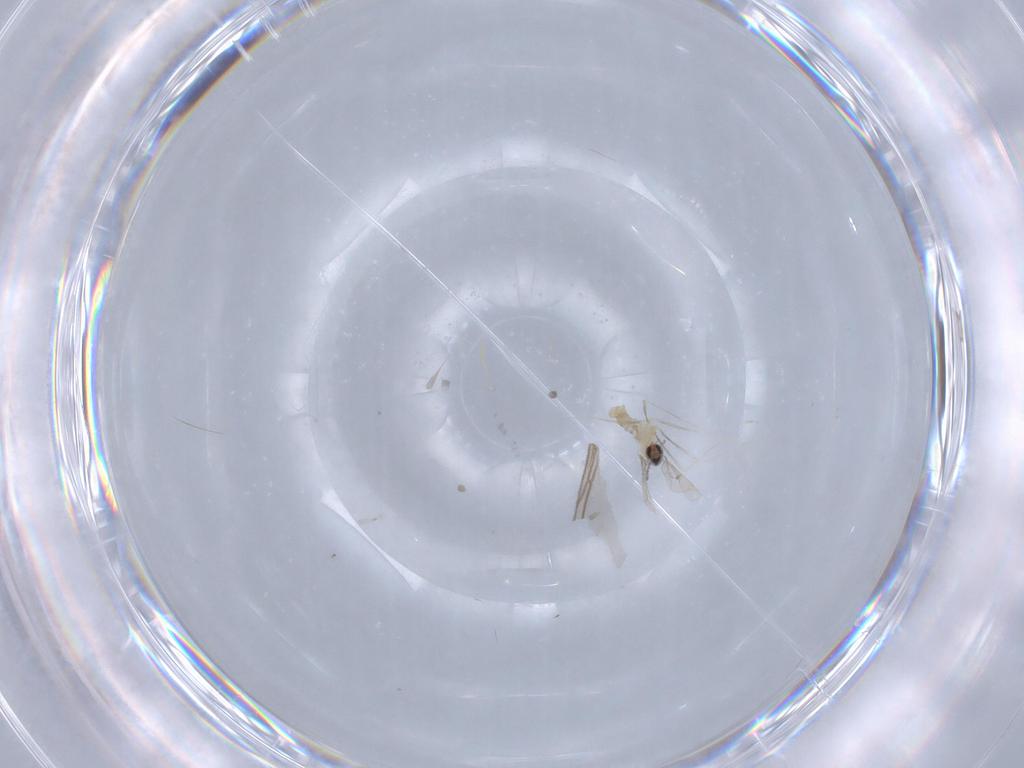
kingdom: Animalia
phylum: Arthropoda
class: Insecta
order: Diptera
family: Cecidomyiidae
